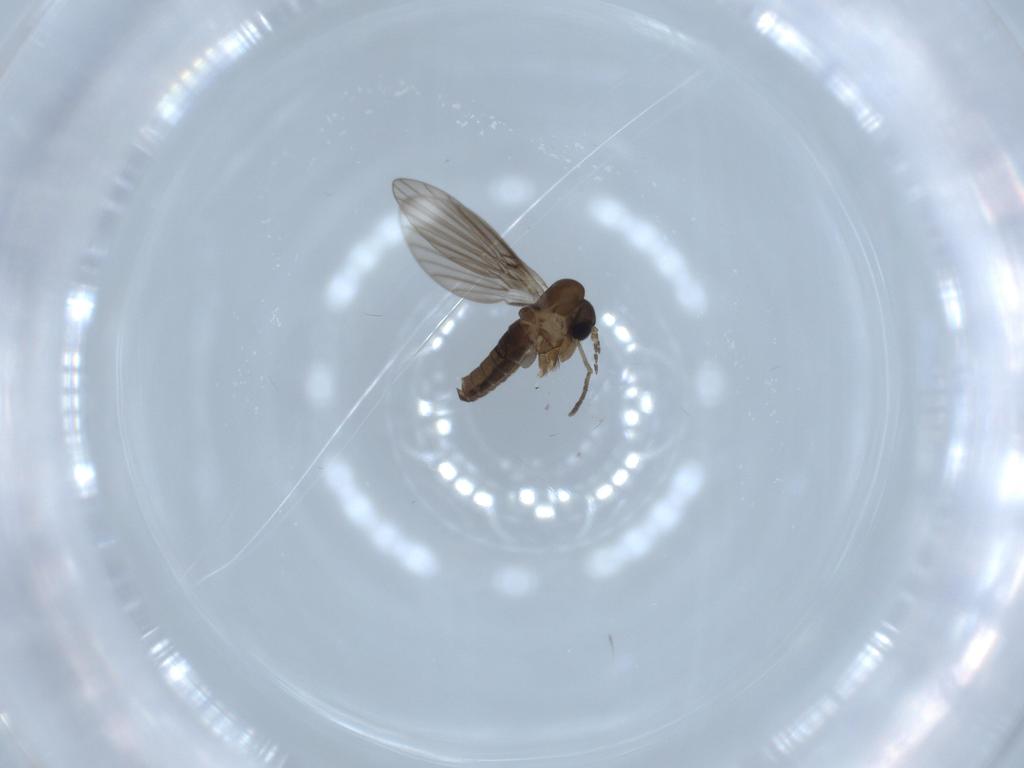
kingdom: Animalia
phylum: Arthropoda
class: Insecta
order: Diptera
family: Psychodidae
